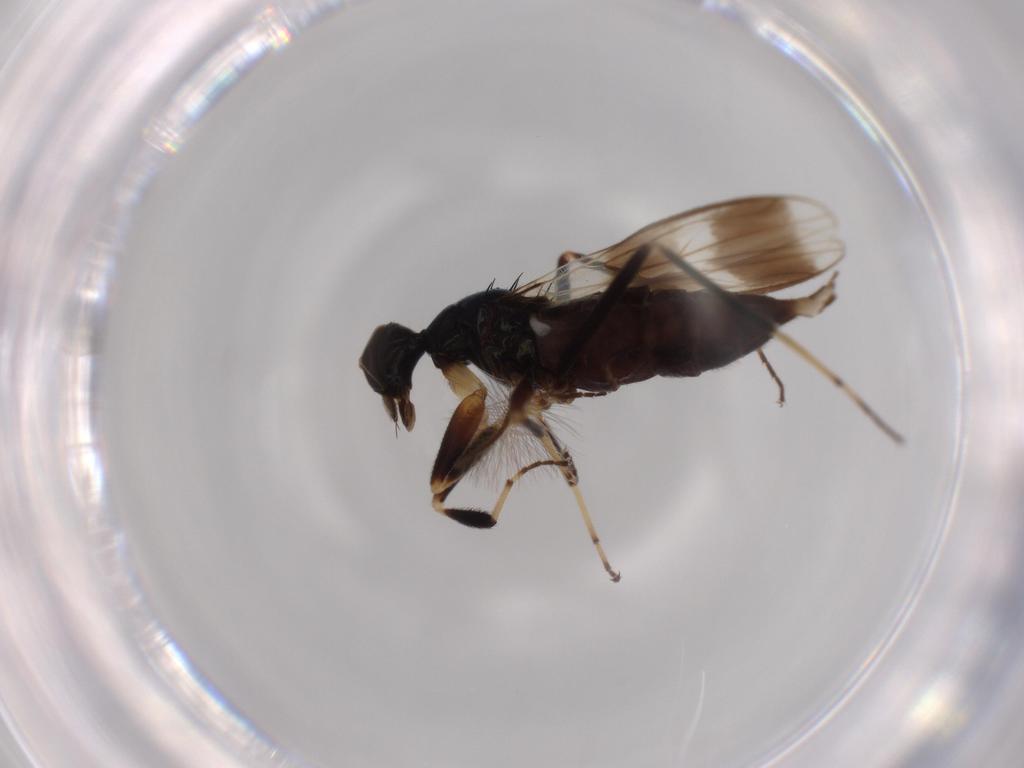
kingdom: Animalia
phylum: Arthropoda
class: Insecta
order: Diptera
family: Hybotidae
